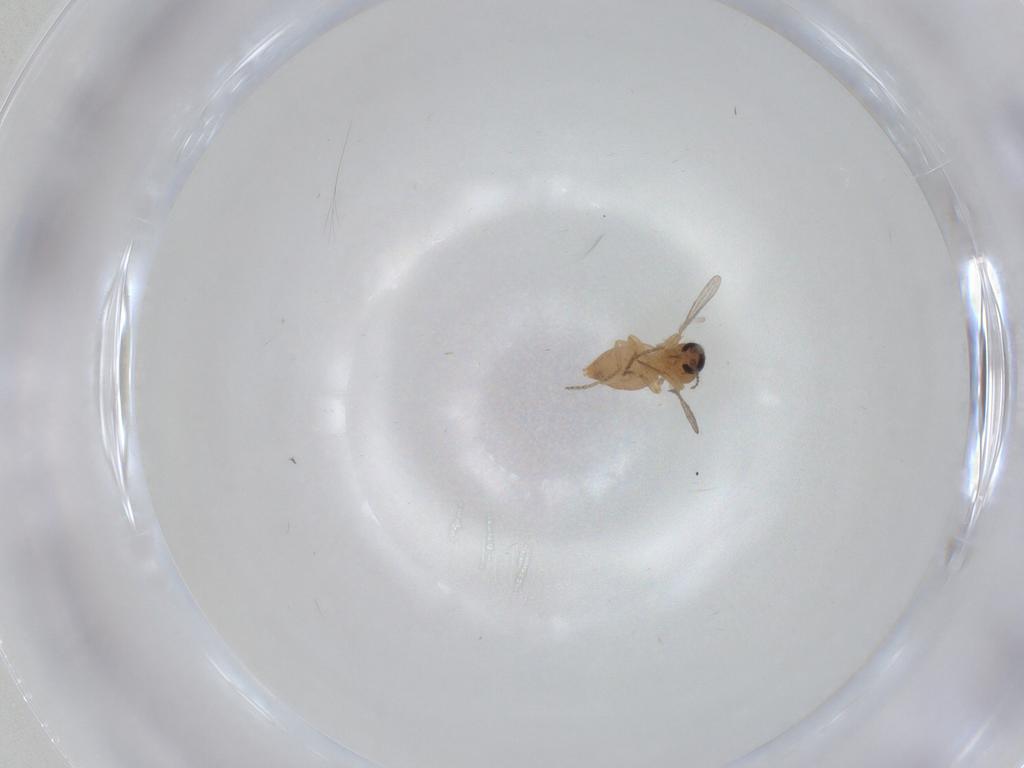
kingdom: Animalia
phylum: Arthropoda
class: Insecta
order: Diptera
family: Ceratopogonidae
